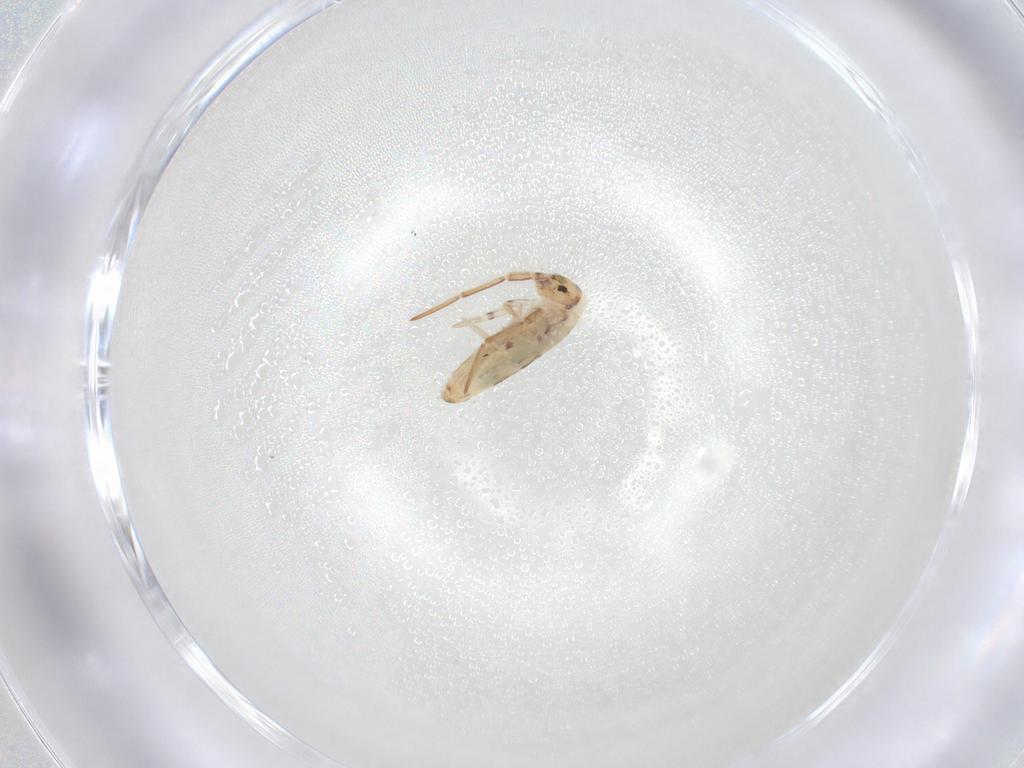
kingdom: Animalia
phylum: Arthropoda
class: Collembola
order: Entomobryomorpha
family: Entomobryidae
